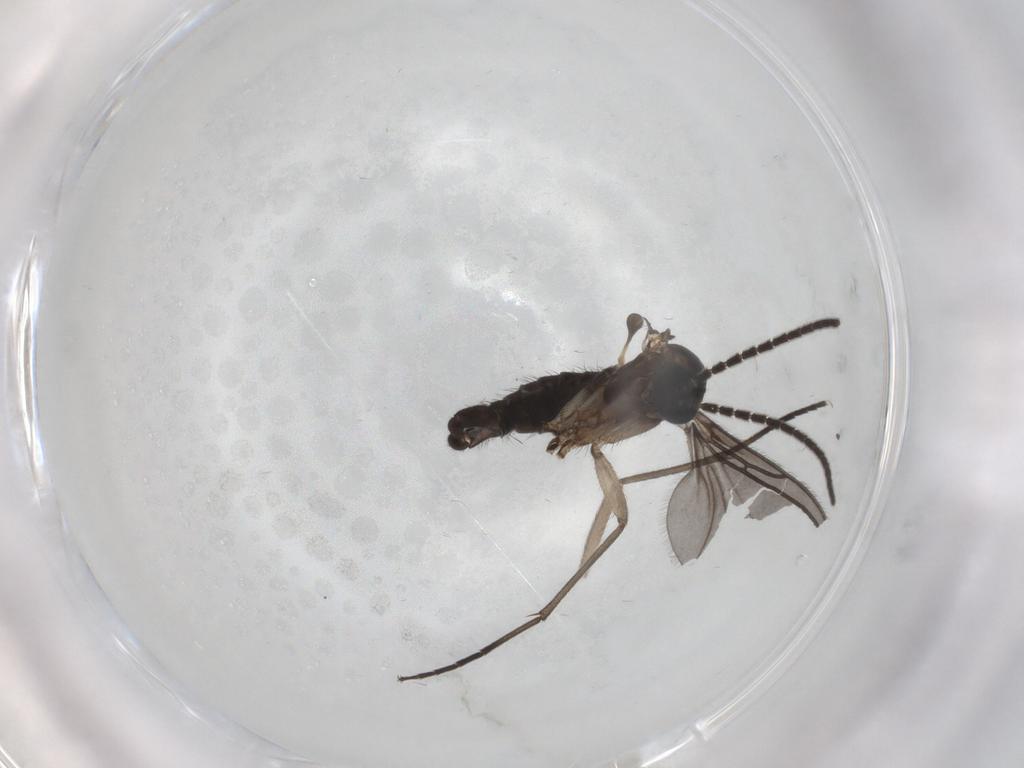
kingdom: Animalia
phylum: Arthropoda
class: Insecta
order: Diptera
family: Sciaridae
